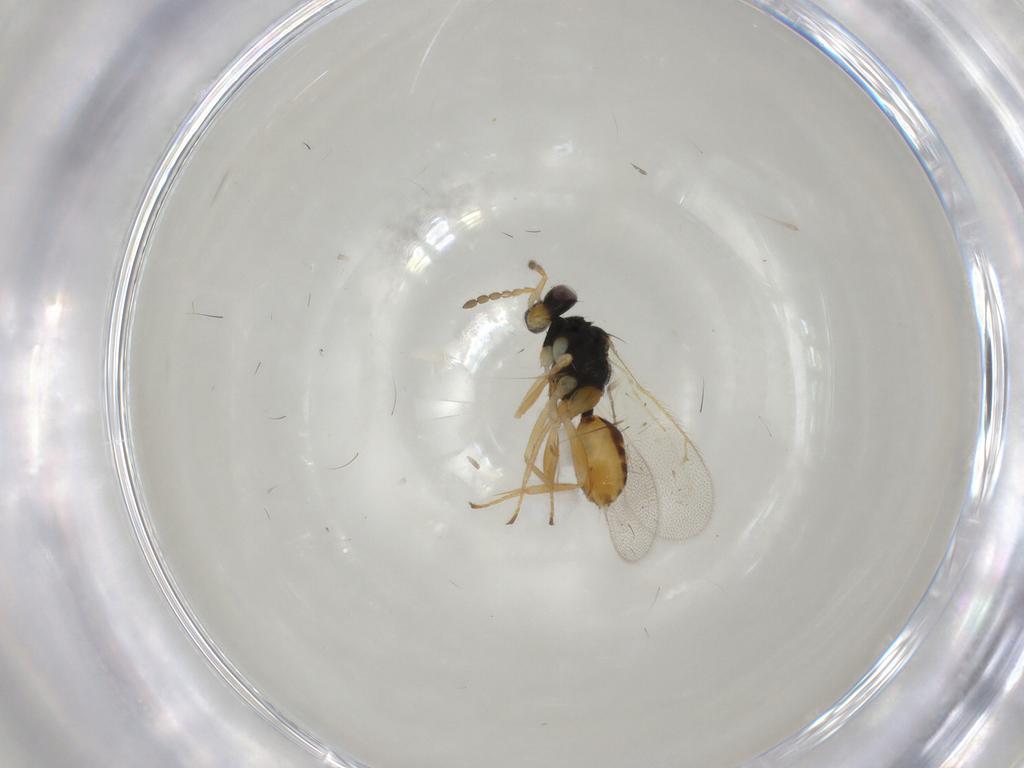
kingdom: Animalia
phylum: Arthropoda
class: Insecta
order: Hymenoptera
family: Eulophidae
